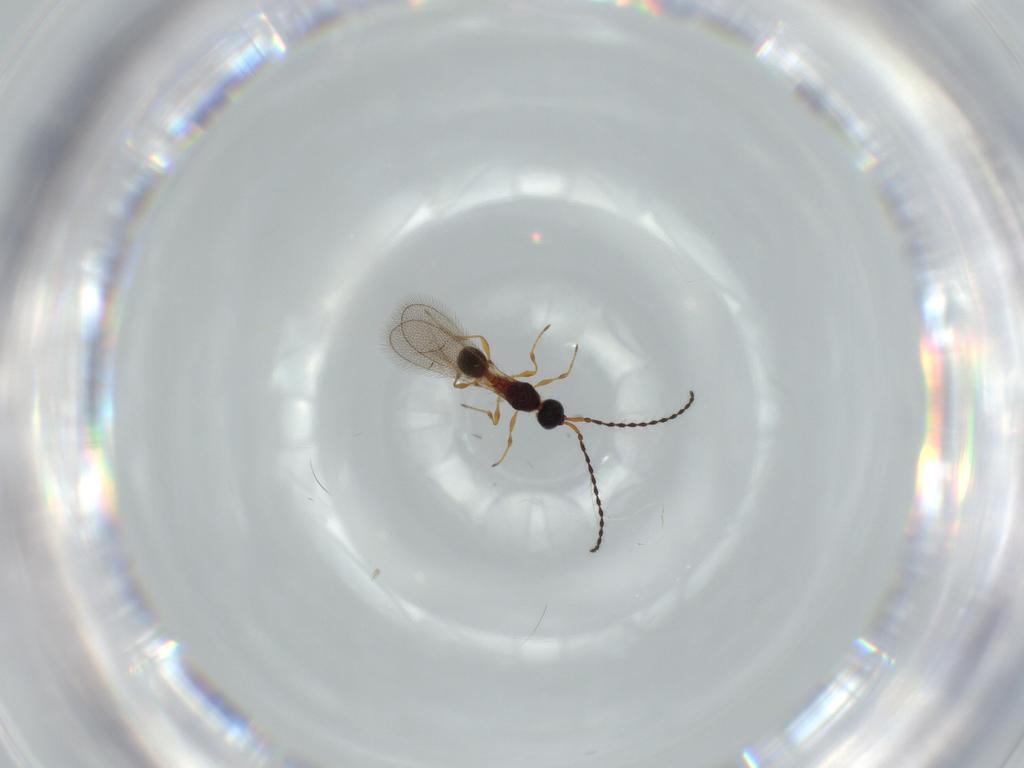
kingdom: Animalia
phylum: Arthropoda
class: Insecta
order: Hymenoptera
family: Diapriidae
